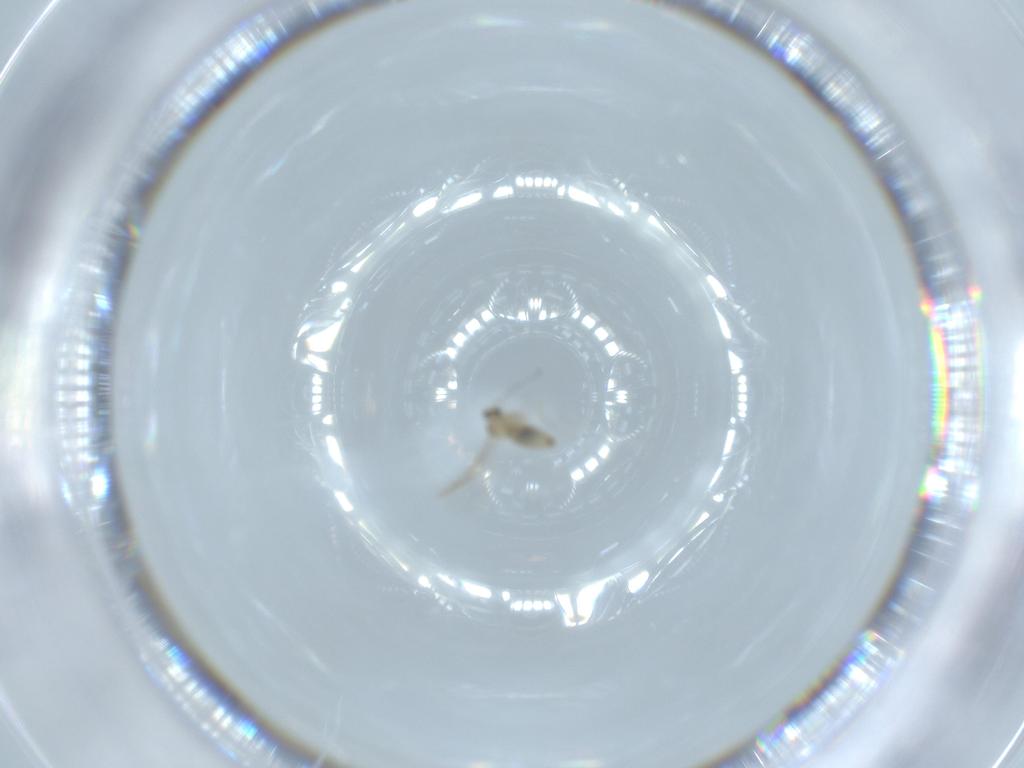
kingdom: Animalia
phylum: Arthropoda
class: Insecta
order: Diptera
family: Cecidomyiidae
